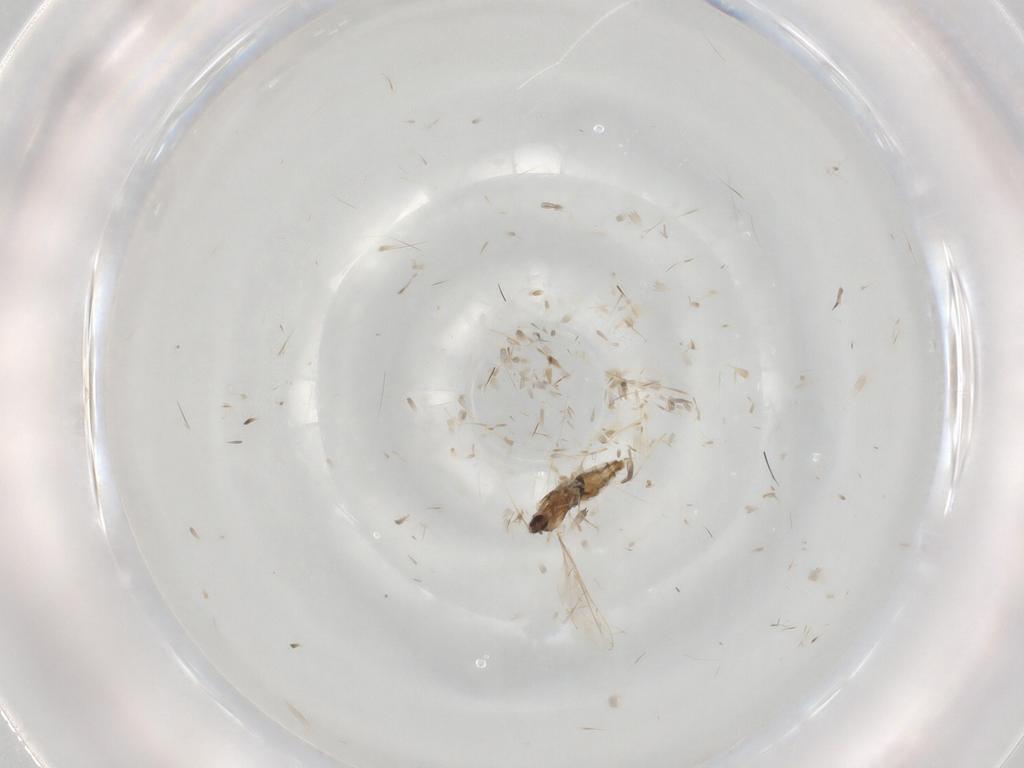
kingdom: Animalia
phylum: Arthropoda
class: Insecta
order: Diptera
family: Cecidomyiidae
